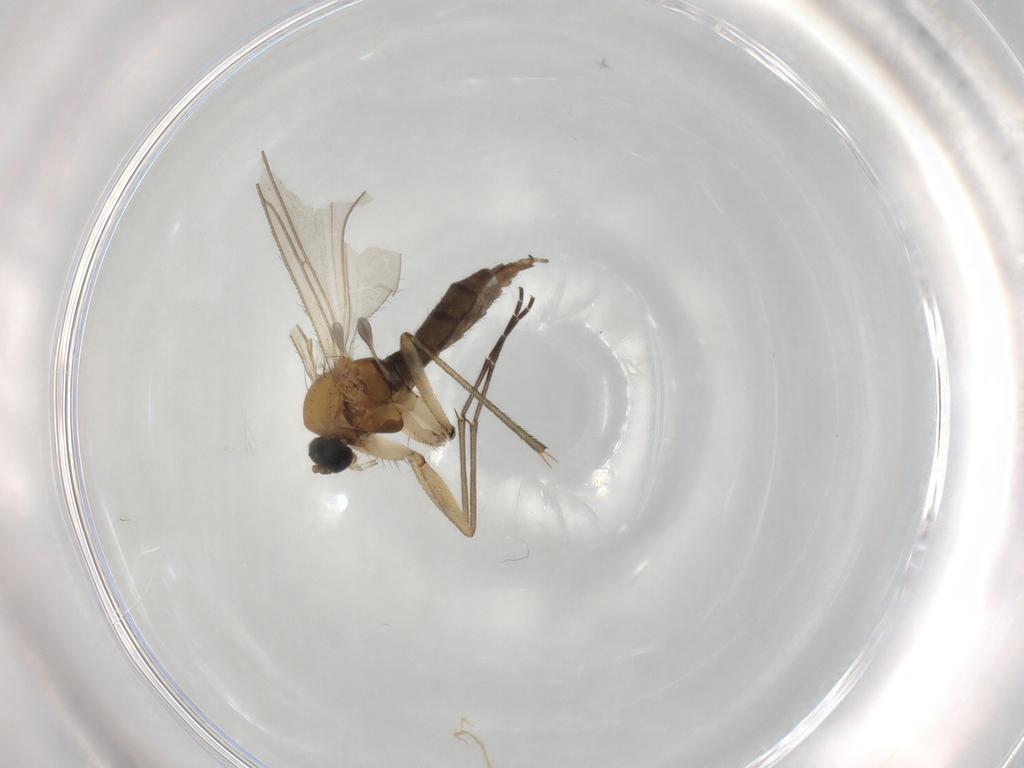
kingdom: Animalia
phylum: Arthropoda
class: Insecta
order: Diptera
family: Sciaridae
